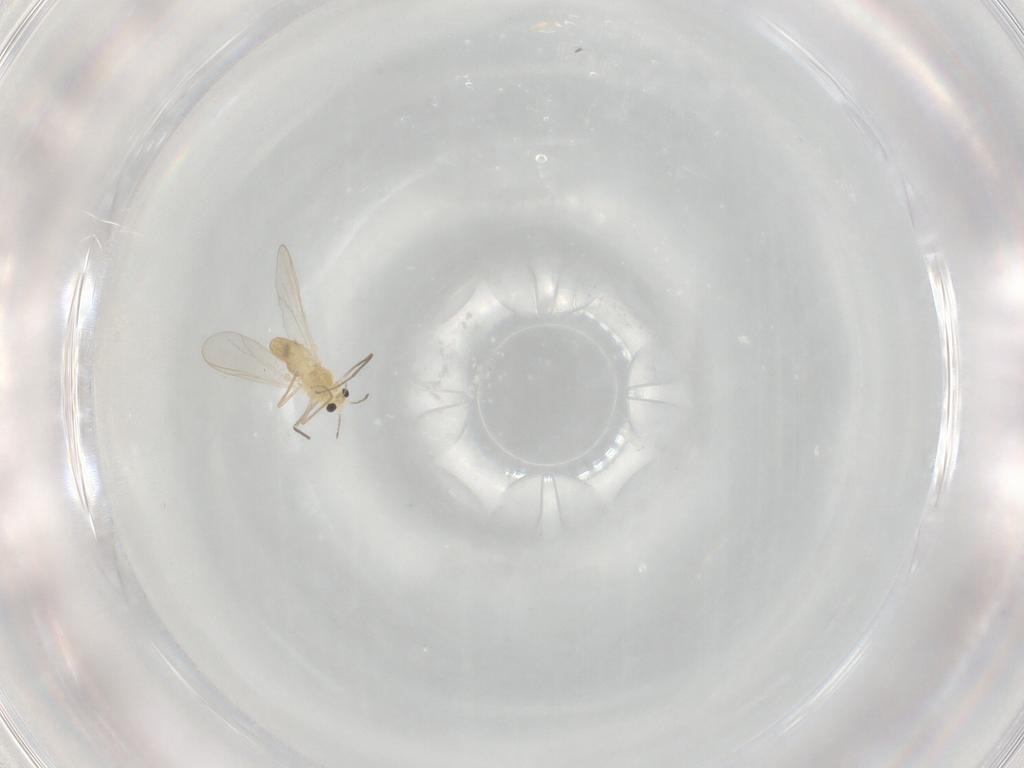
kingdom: Animalia
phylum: Arthropoda
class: Insecta
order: Diptera
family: Chironomidae
